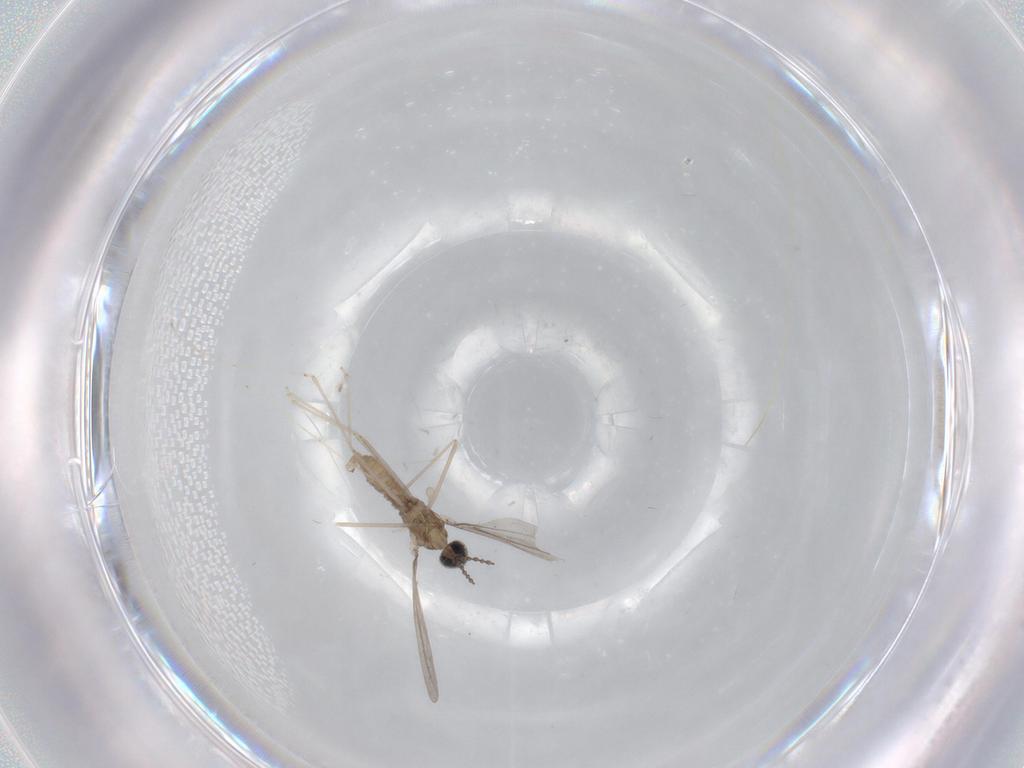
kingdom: Animalia
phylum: Arthropoda
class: Insecta
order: Diptera
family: Cecidomyiidae
